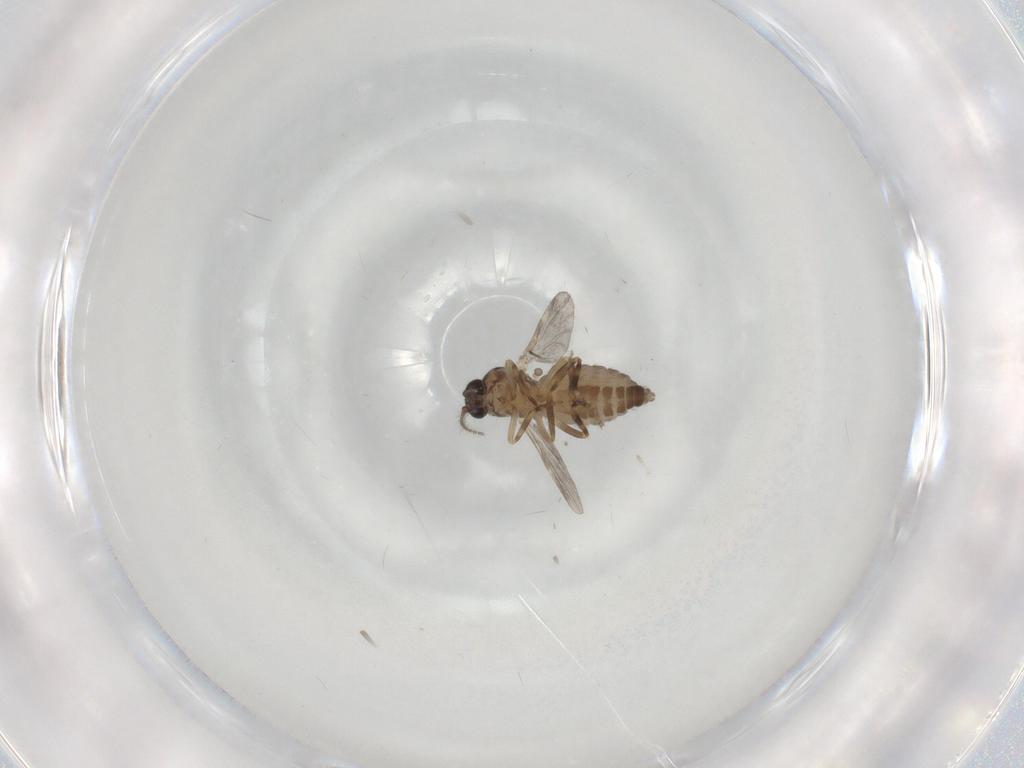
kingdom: Animalia
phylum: Arthropoda
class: Insecta
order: Diptera
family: Ceratopogonidae
